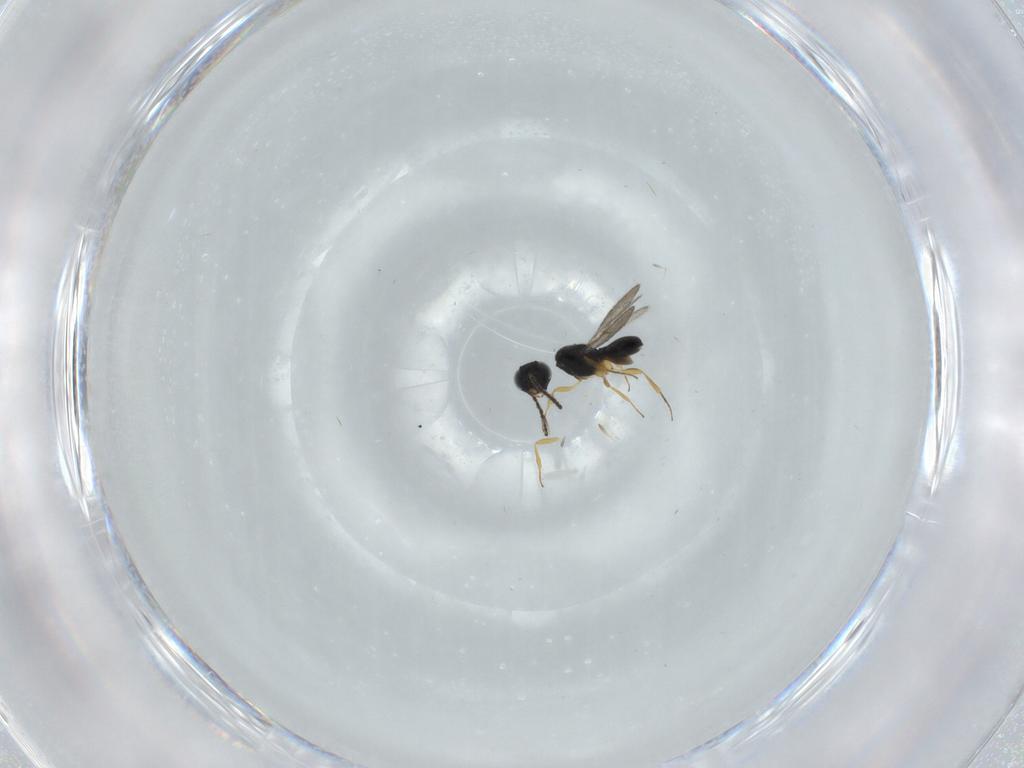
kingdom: Animalia
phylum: Arthropoda
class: Insecta
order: Hymenoptera
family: Scelionidae
